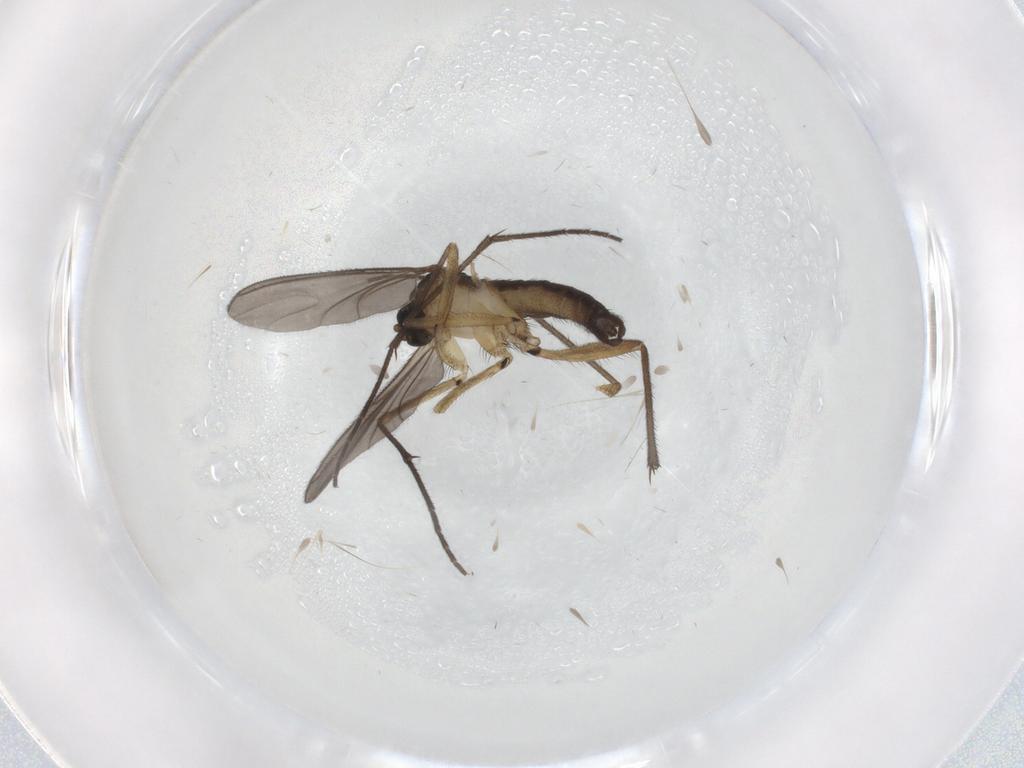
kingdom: Animalia
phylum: Arthropoda
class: Insecta
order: Diptera
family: Sciaridae
